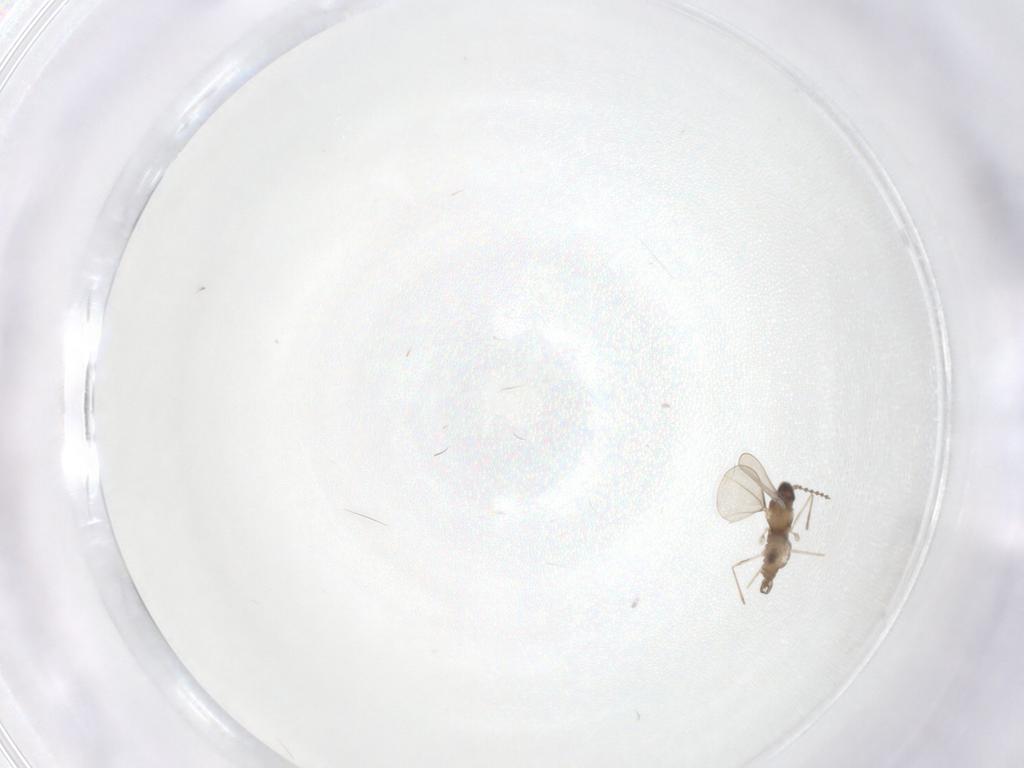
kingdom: Animalia
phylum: Arthropoda
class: Insecta
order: Diptera
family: Cecidomyiidae
